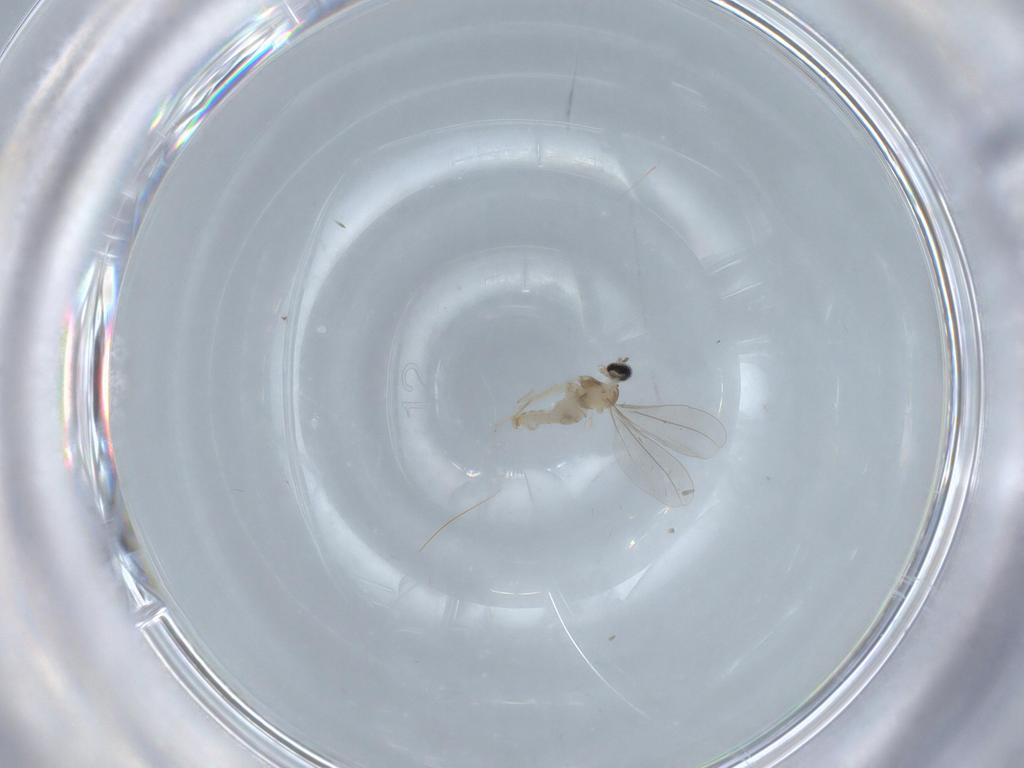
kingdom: Animalia
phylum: Arthropoda
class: Insecta
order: Diptera
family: Chironomidae
